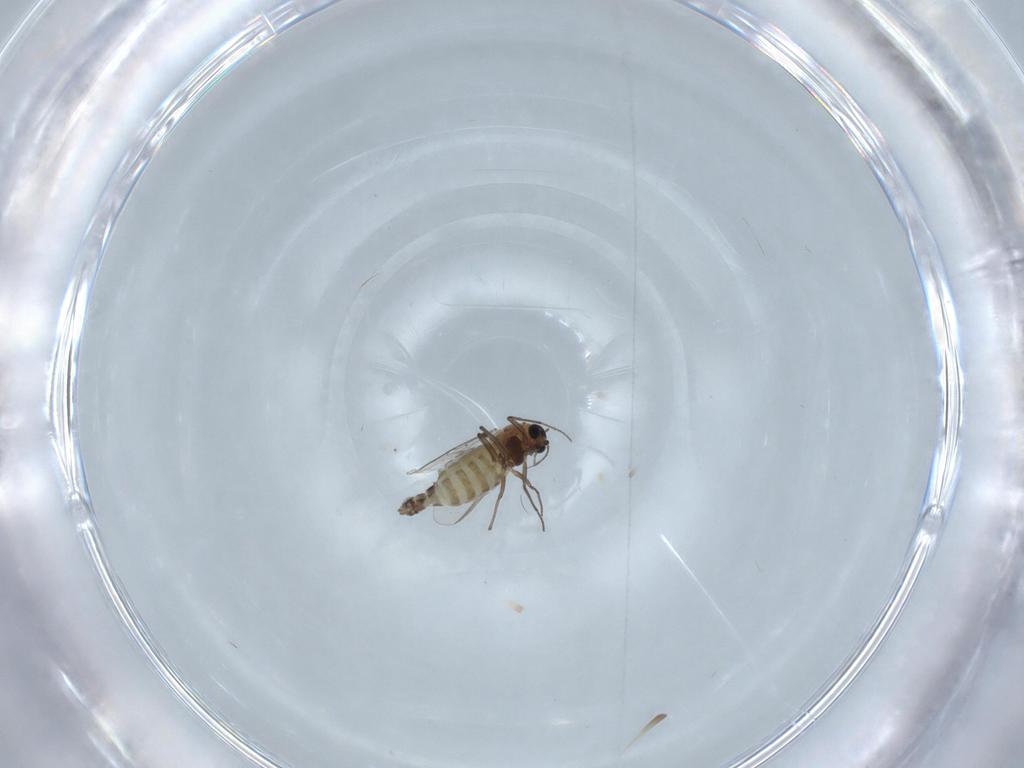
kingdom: Animalia
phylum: Arthropoda
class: Insecta
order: Diptera
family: Chironomidae
